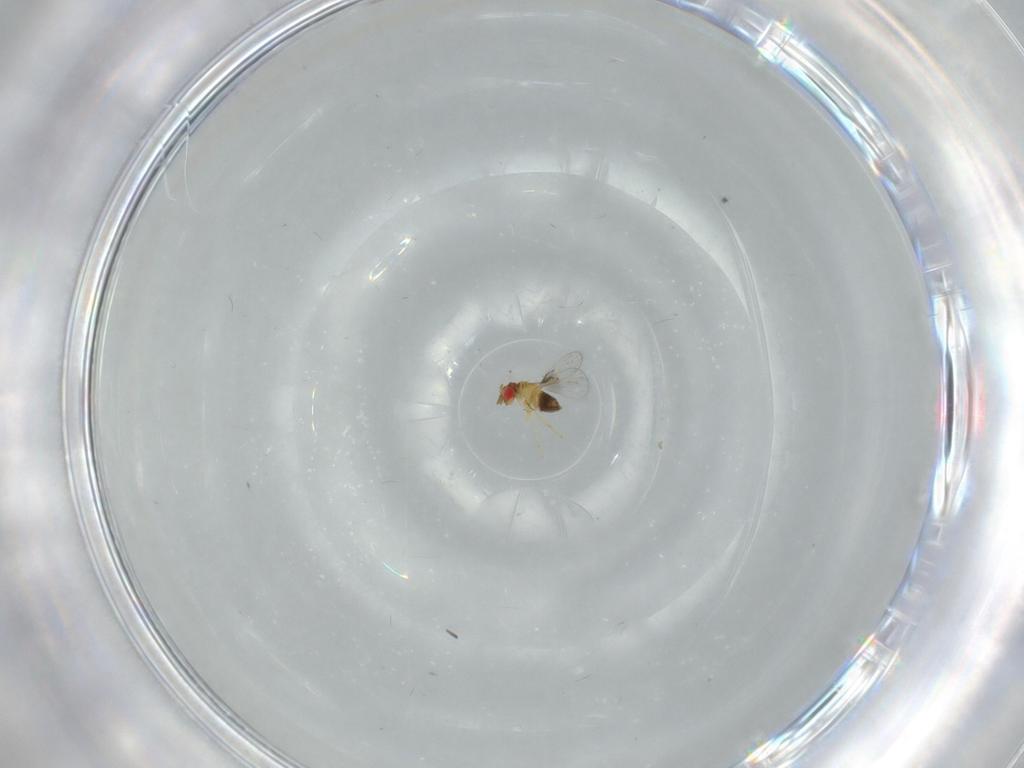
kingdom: Animalia
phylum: Arthropoda
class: Insecta
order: Hymenoptera
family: Trichogrammatidae
